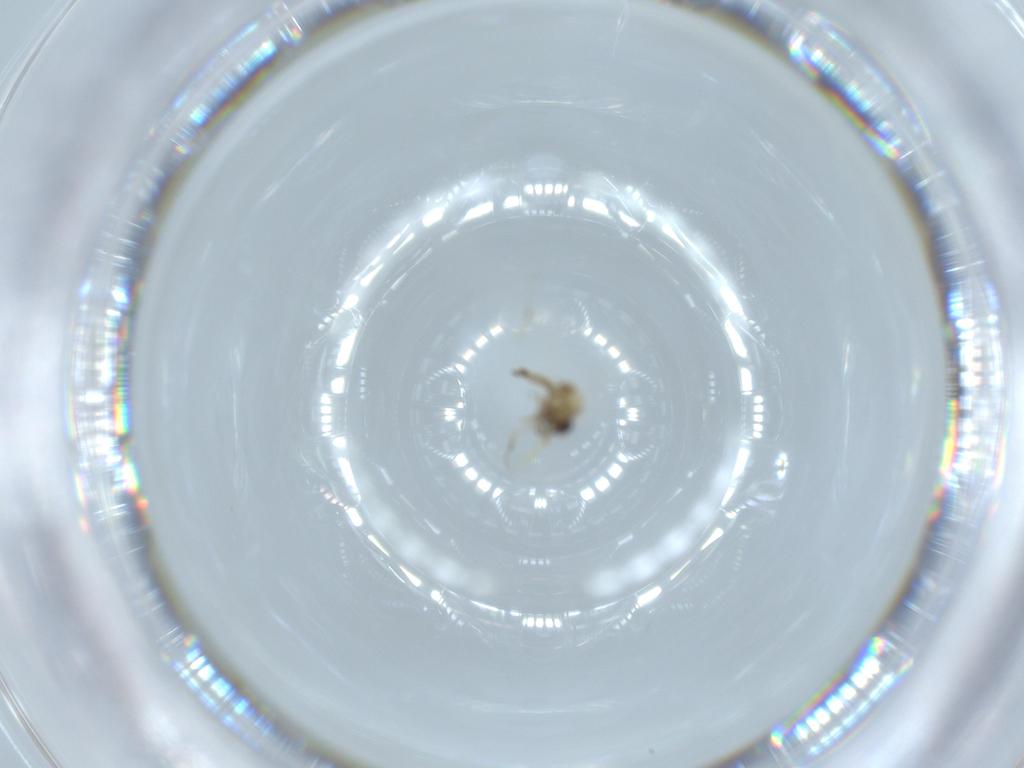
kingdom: Animalia
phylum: Arthropoda
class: Insecta
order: Diptera
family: Ceratopogonidae
